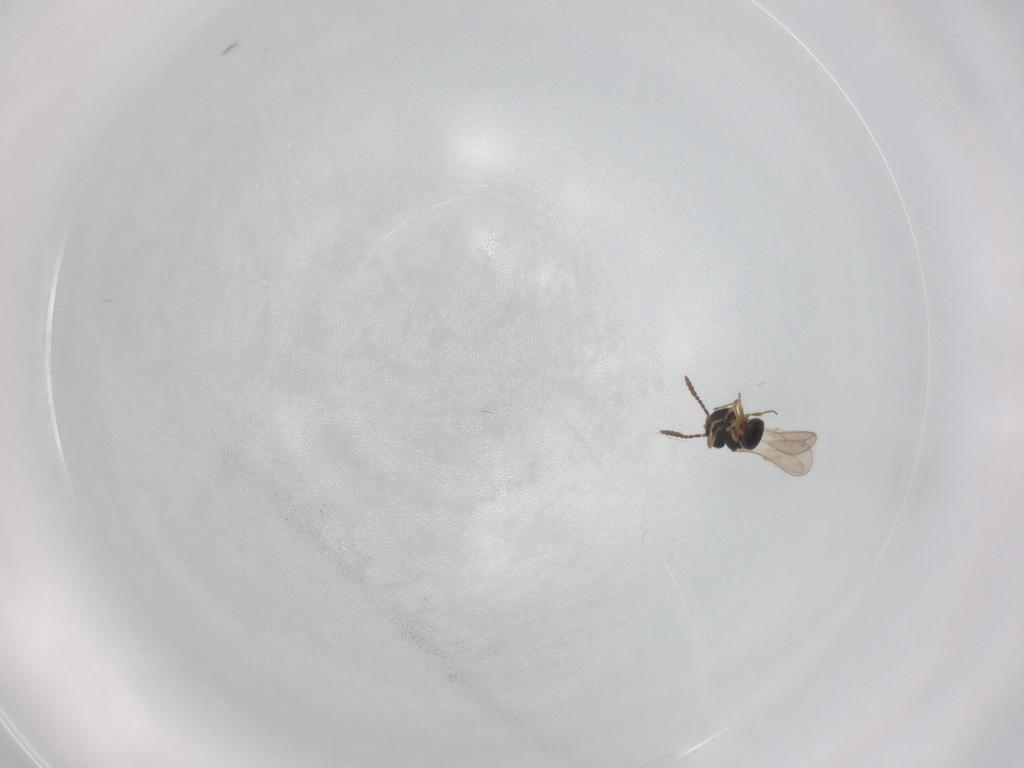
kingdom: Animalia
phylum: Arthropoda
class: Insecta
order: Hymenoptera
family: Scelionidae
